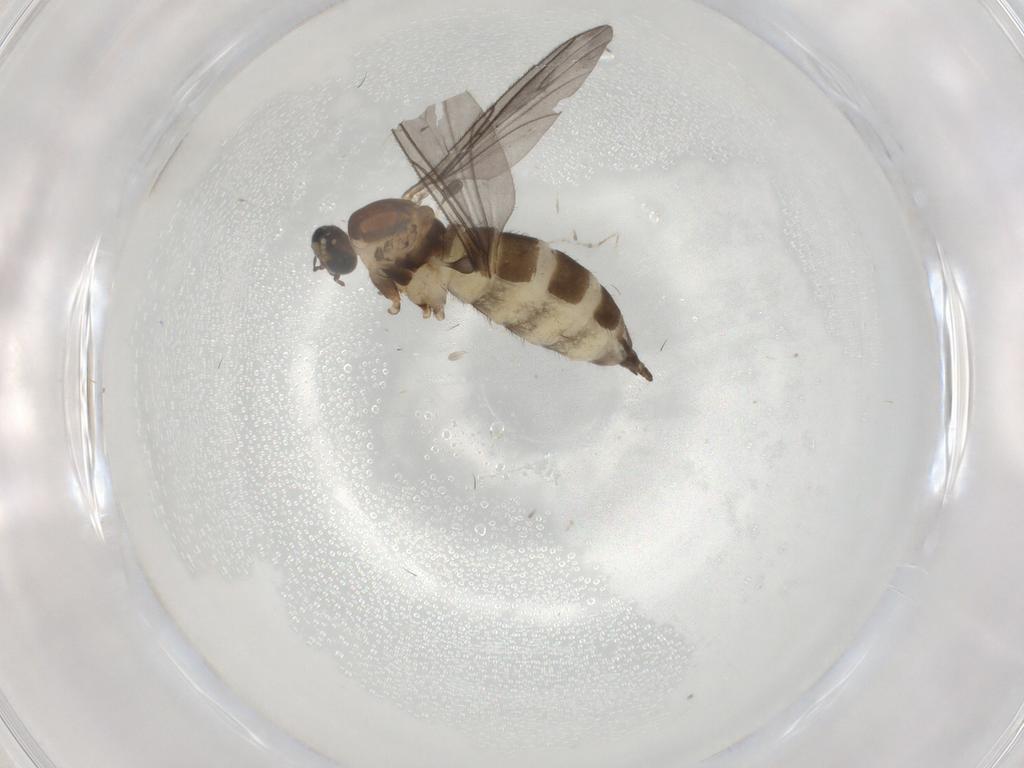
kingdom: Animalia
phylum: Arthropoda
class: Insecta
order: Diptera
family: Sciaridae
